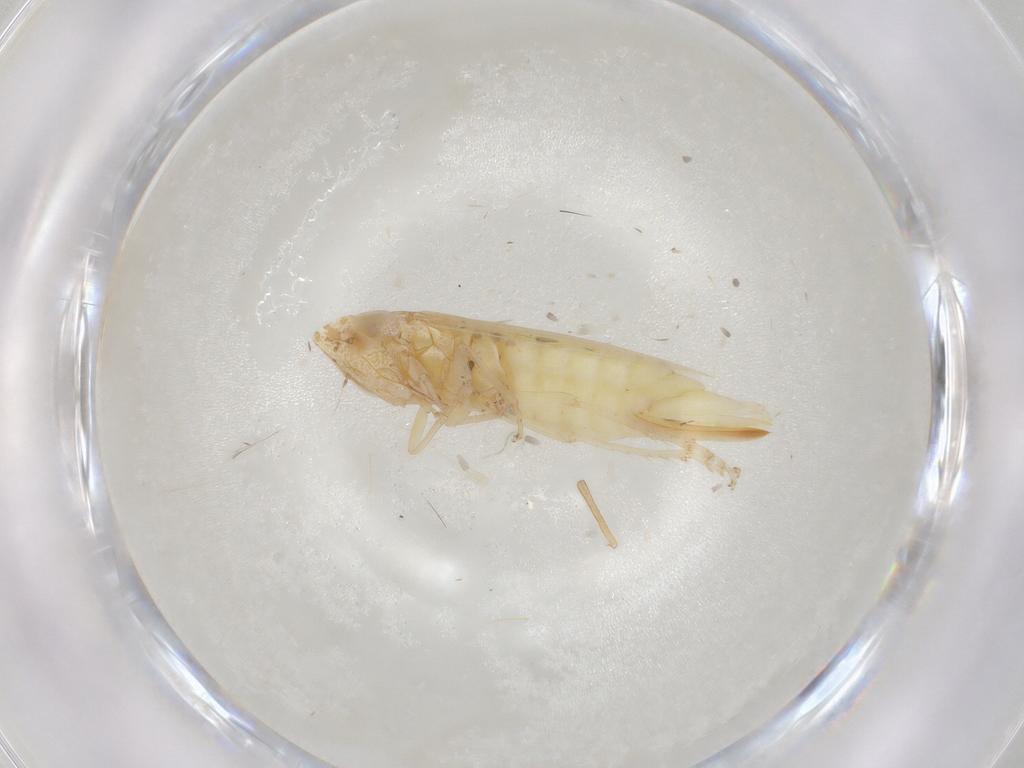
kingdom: Animalia
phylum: Arthropoda
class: Insecta
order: Hemiptera
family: Cicadellidae
